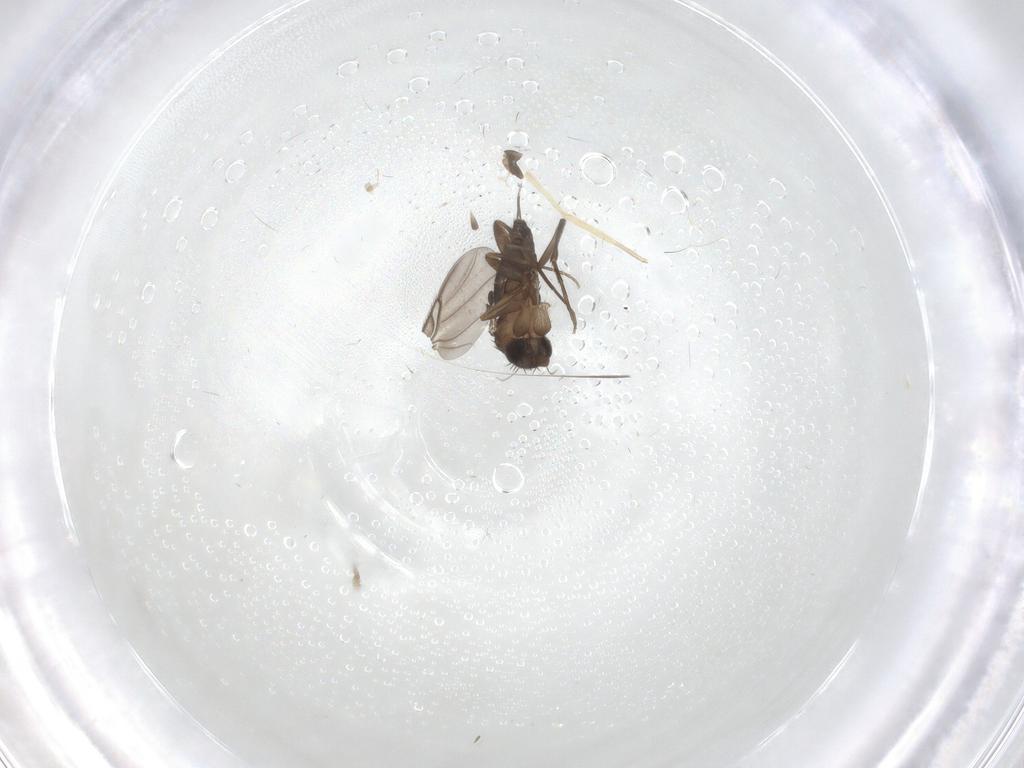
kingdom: Animalia
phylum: Arthropoda
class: Insecta
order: Diptera
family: Phoridae
